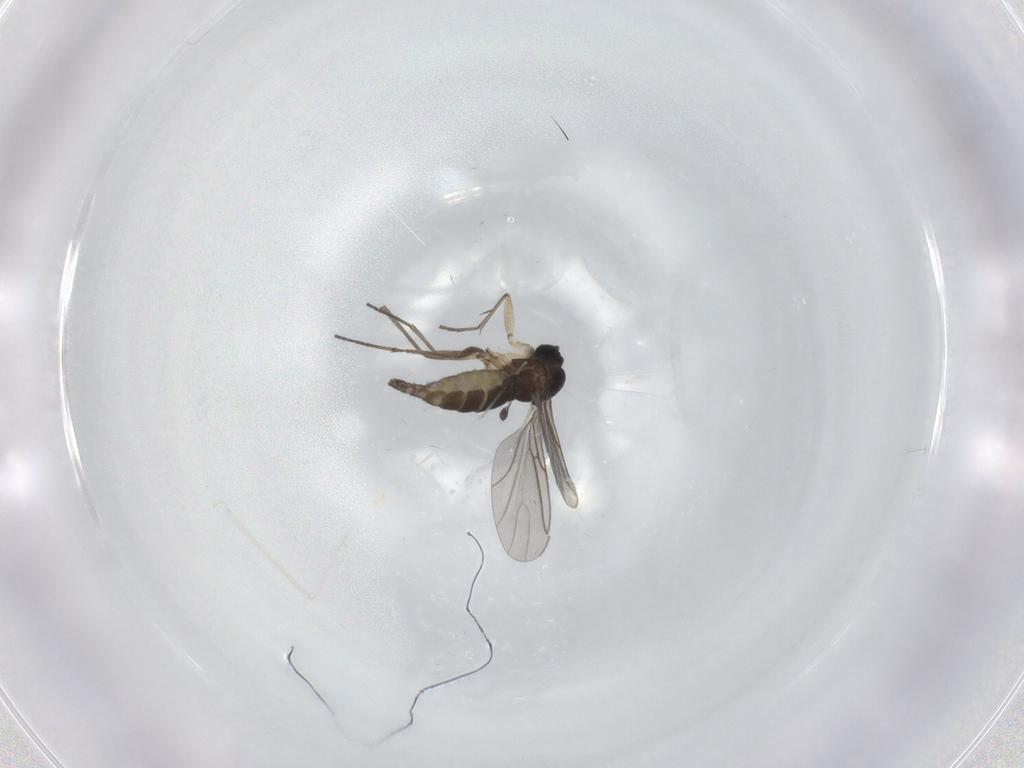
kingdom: Animalia
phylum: Arthropoda
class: Insecta
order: Diptera
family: Sciaridae
